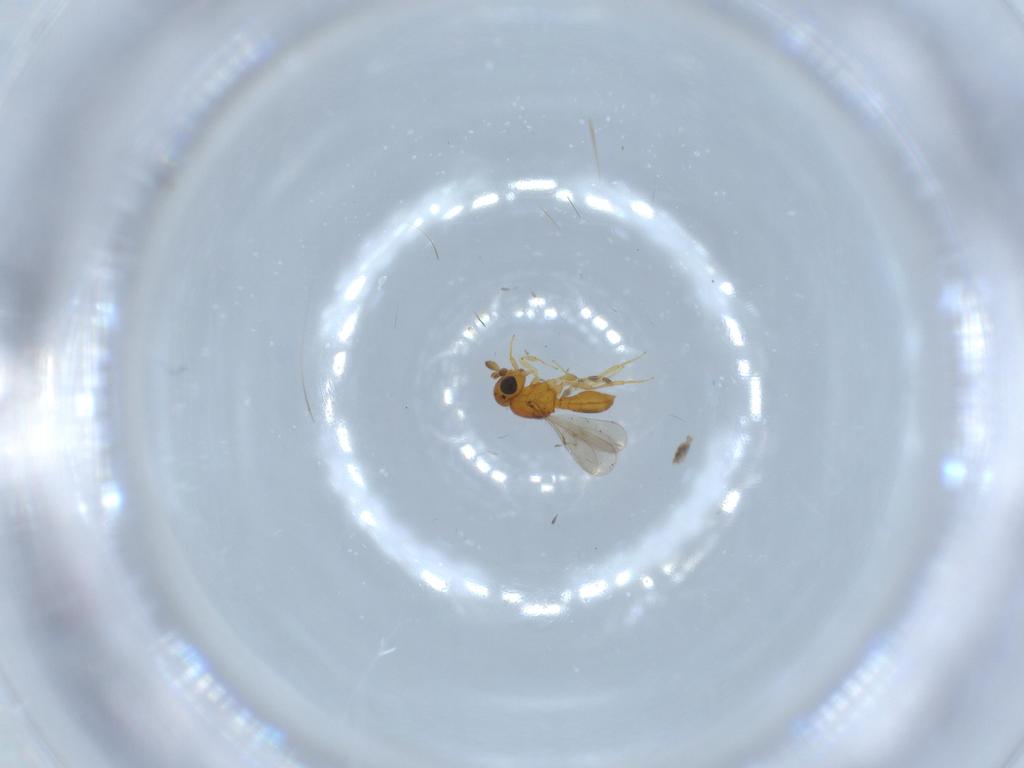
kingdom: Animalia
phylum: Arthropoda
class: Insecta
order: Hymenoptera
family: Scelionidae
